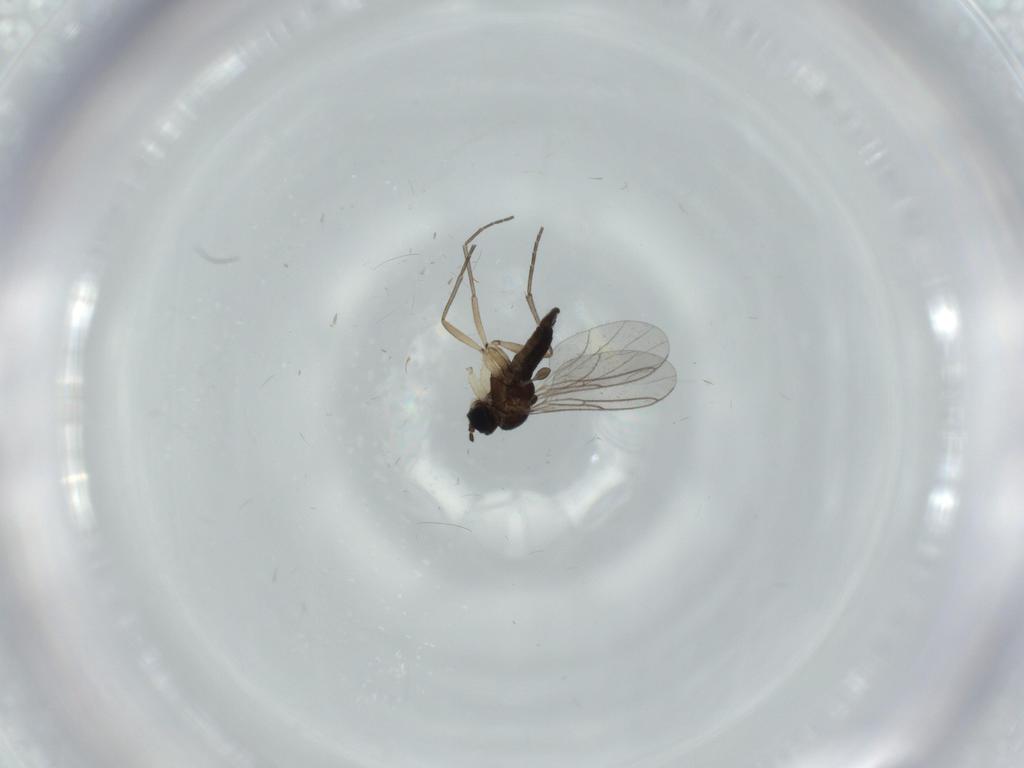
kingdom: Animalia
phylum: Arthropoda
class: Insecta
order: Diptera
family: Sciaridae
